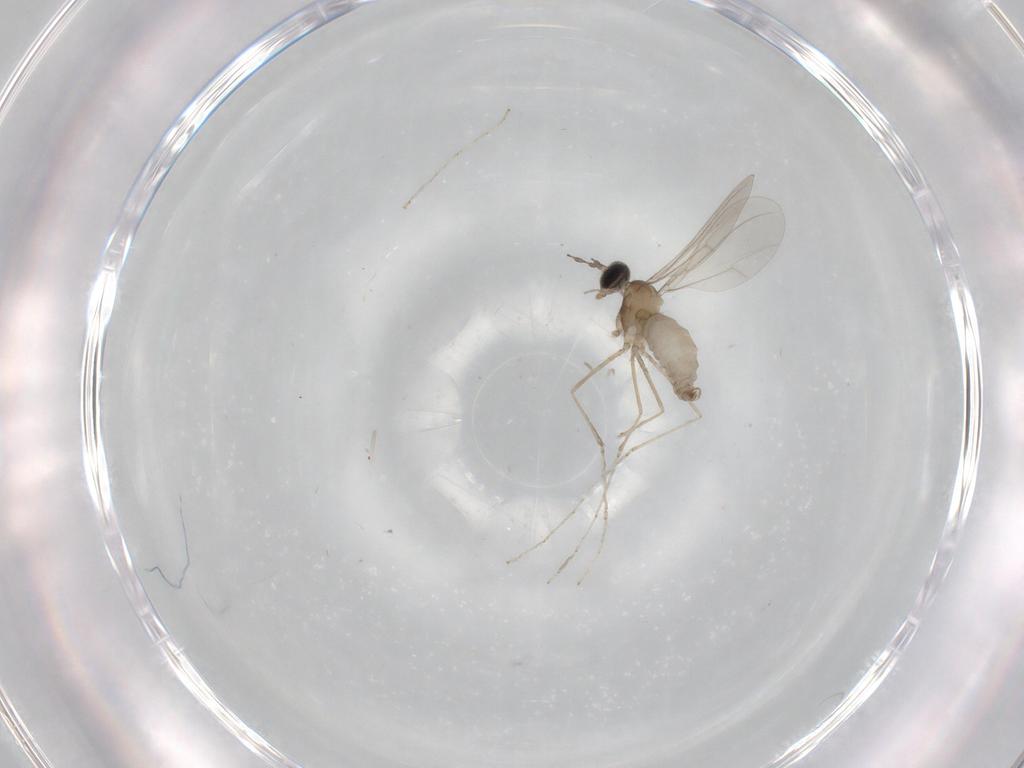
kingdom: Animalia
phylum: Arthropoda
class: Insecta
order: Diptera
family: Cecidomyiidae
